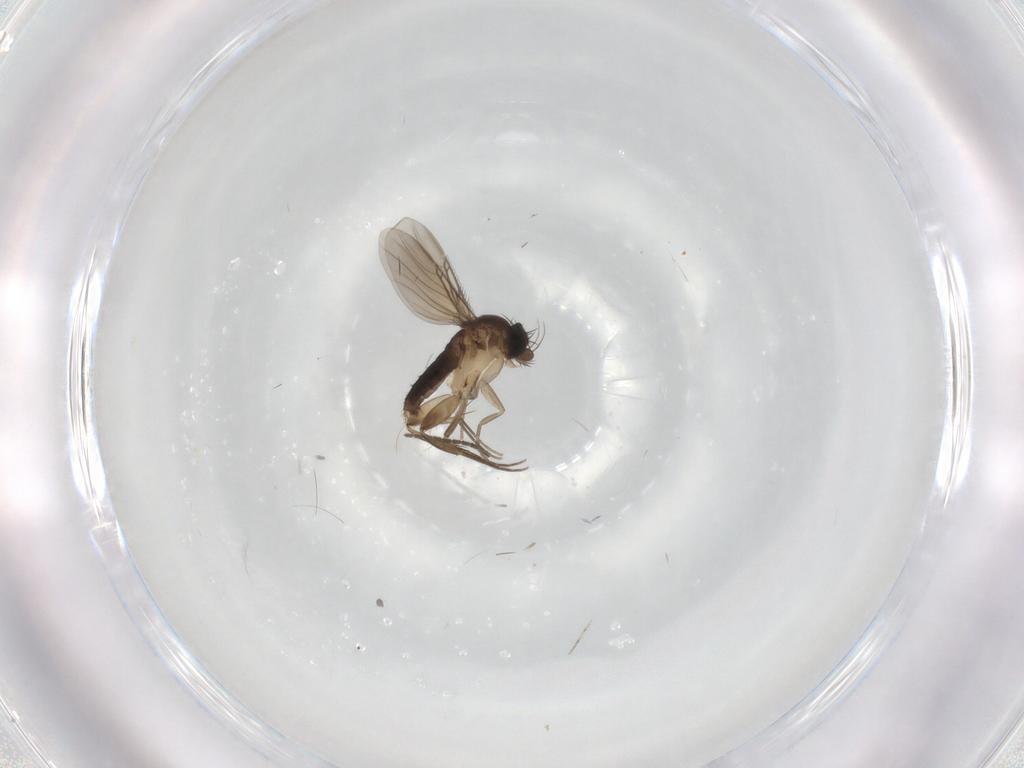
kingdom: Animalia
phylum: Arthropoda
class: Insecta
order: Diptera
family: Phoridae
